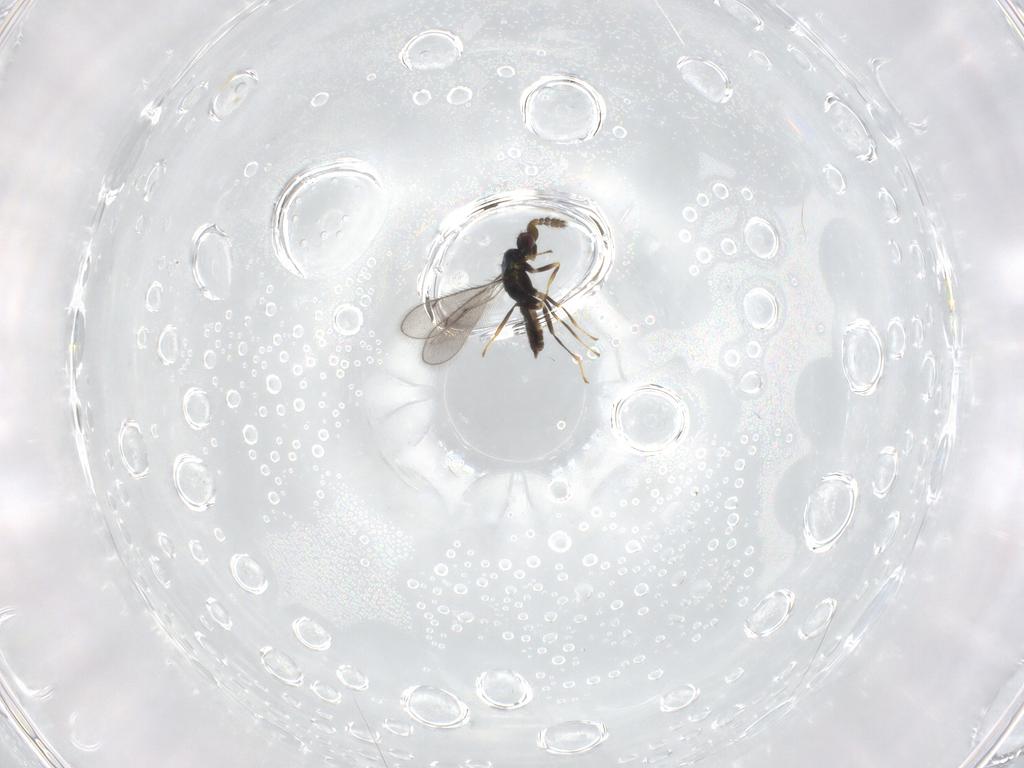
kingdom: Animalia
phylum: Arthropoda
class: Insecta
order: Hymenoptera
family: Eulophidae
